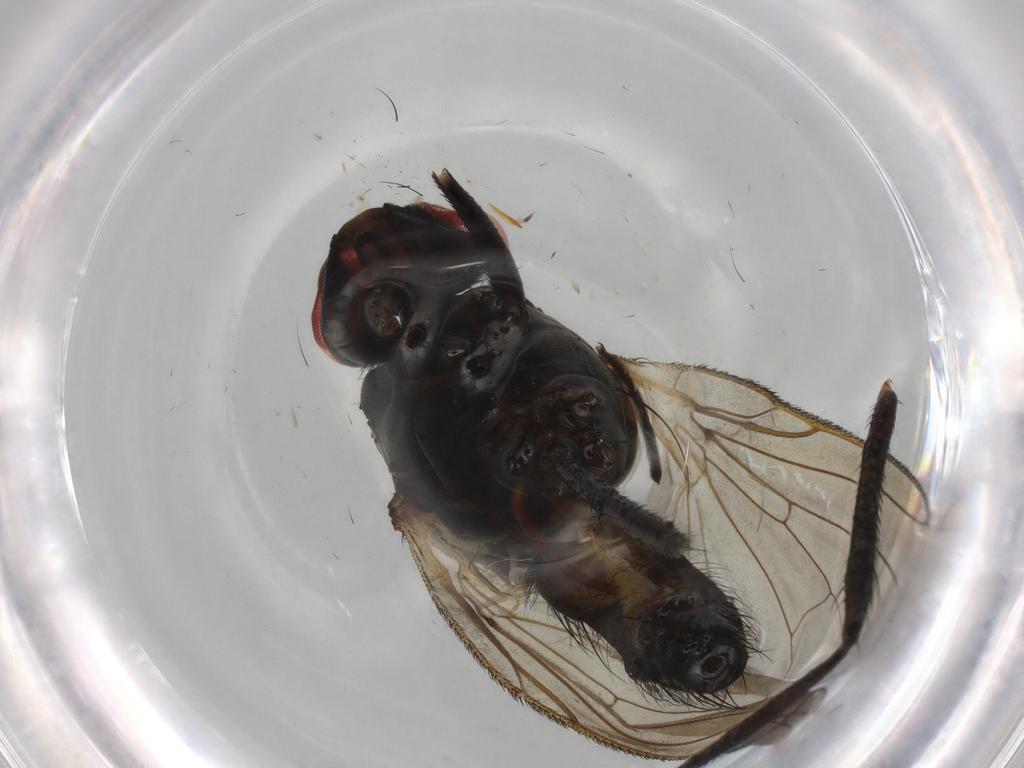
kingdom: Animalia
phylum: Arthropoda
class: Insecta
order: Diptera
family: Anthomyiidae
